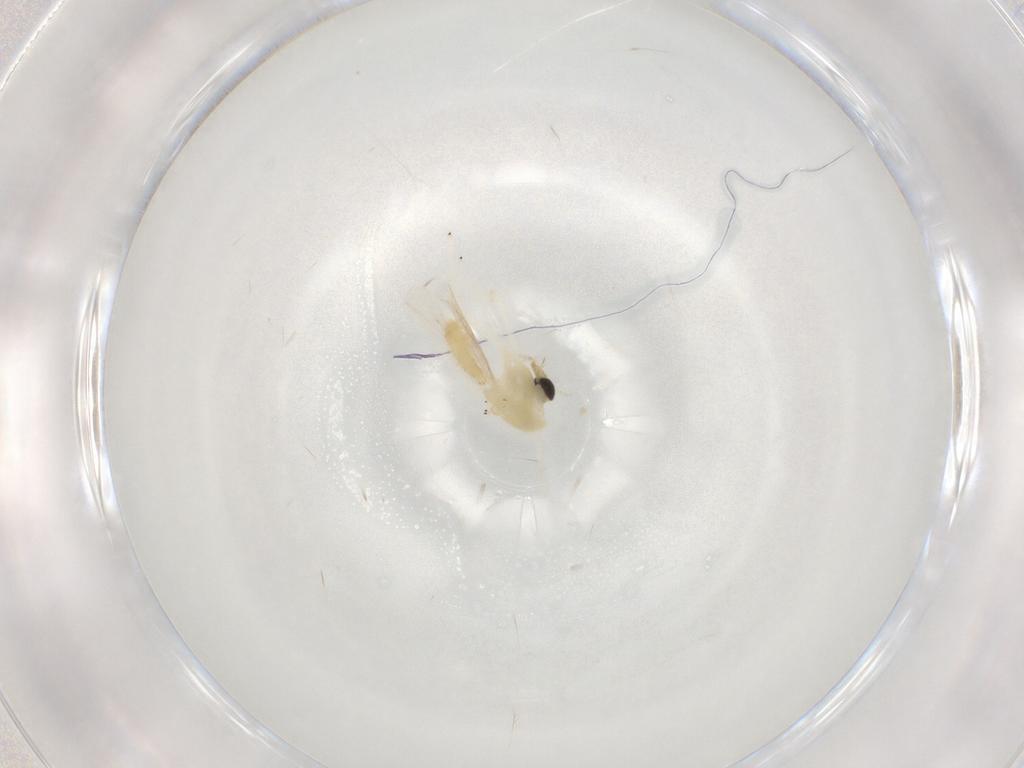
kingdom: Animalia
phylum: Arthropoda
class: Insecta
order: Diptera
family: Chironomidae
